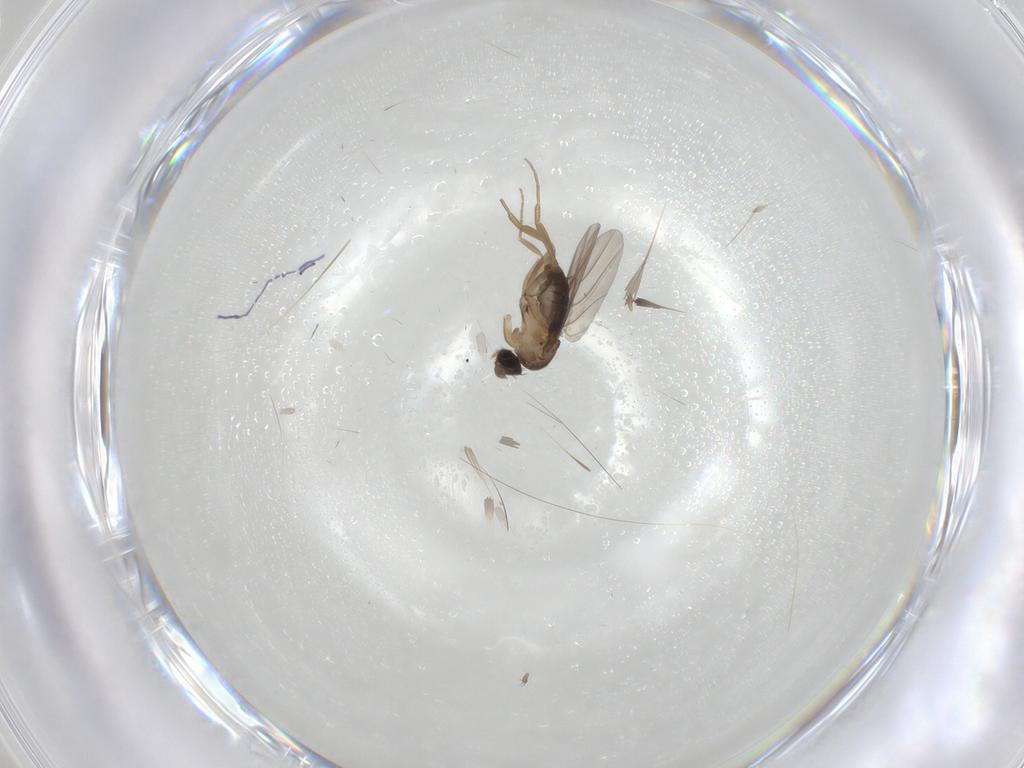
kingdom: Animalia
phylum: Arthropoda
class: Insecta
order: Diptera
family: Phoridae
